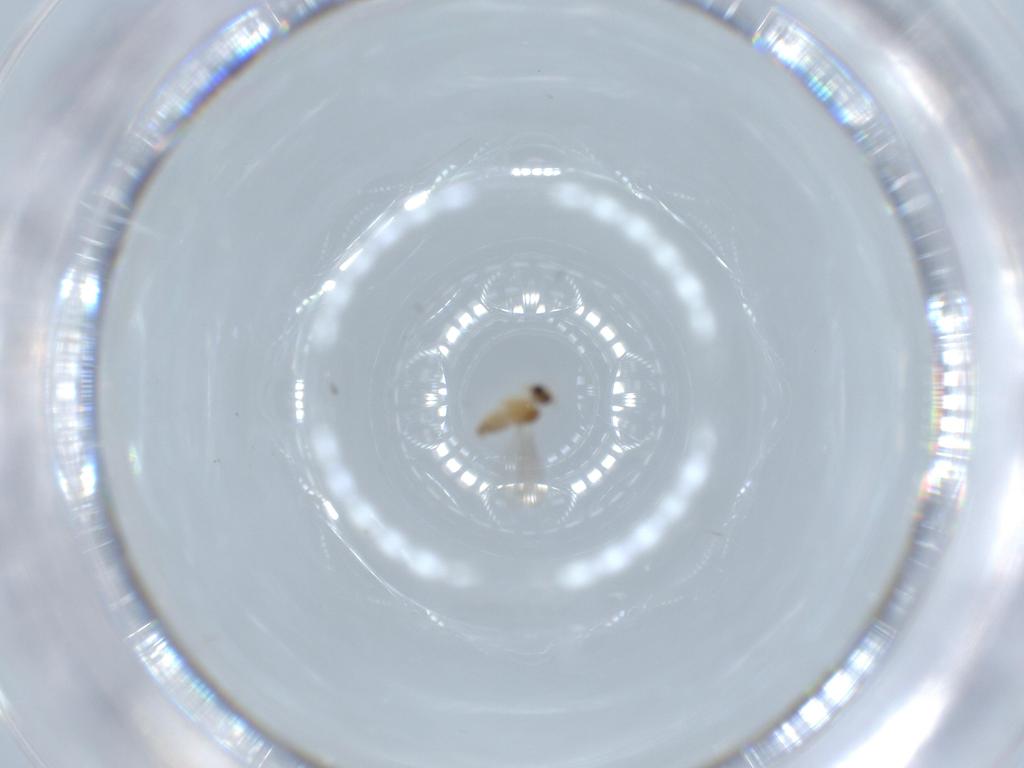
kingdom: Animalia
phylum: Arthropoda
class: Insecta
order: Diptera
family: Cecidomyiidae
